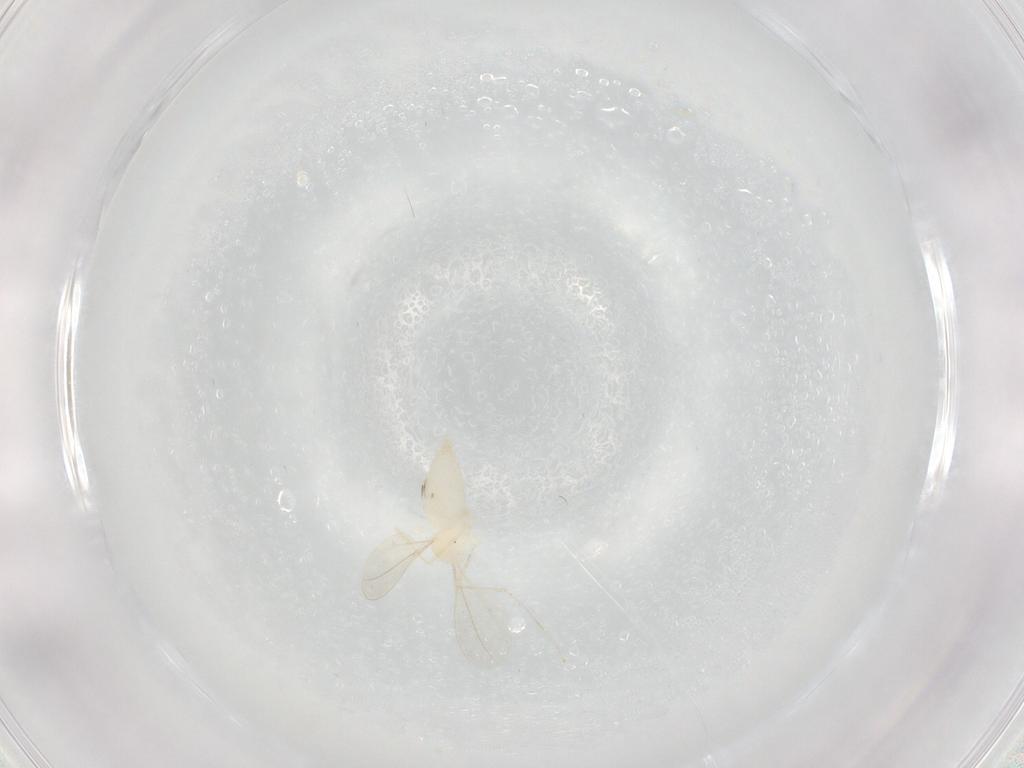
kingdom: Animalia
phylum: Arthropoda
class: Insecta
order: Diptera
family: Cecidomyiidae
